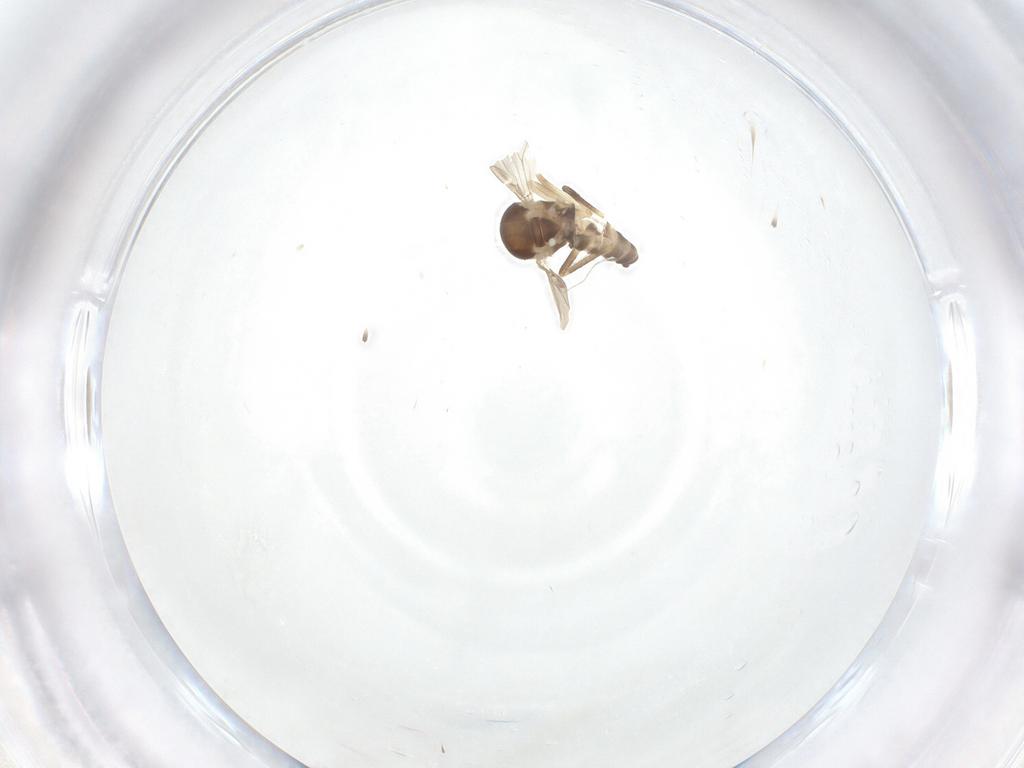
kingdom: Animalia
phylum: Arthropoda
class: Insecta
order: Diptera
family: Ceratopogonidae
